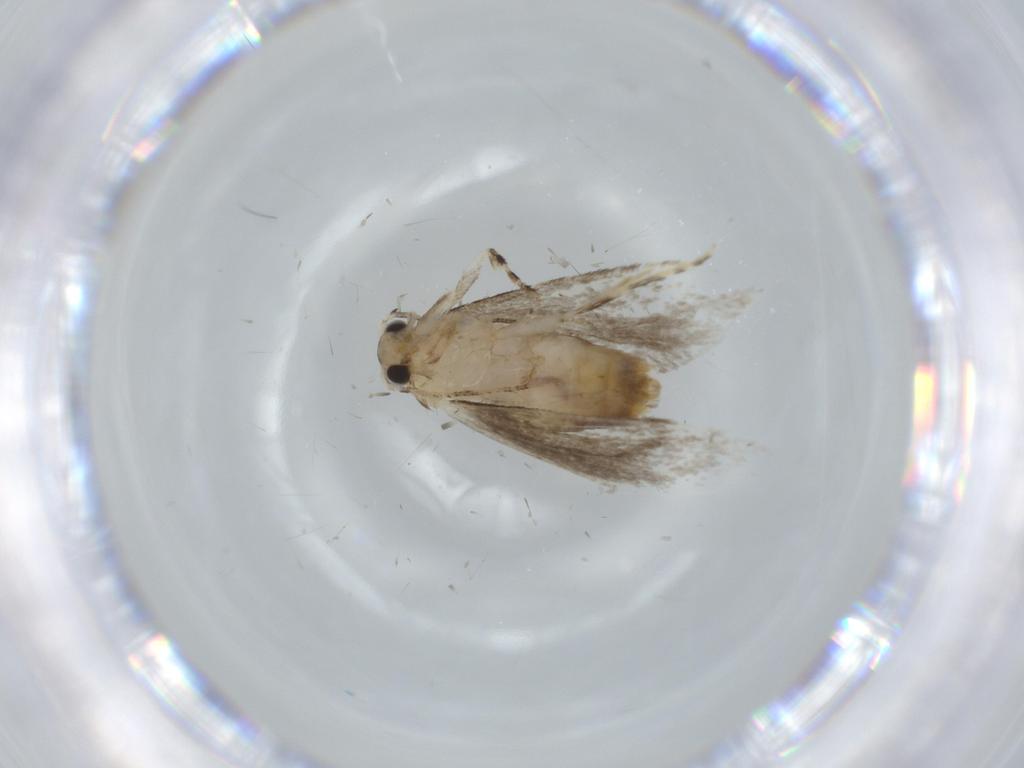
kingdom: Animalia
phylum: Arthropoda
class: Insecta
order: Lepidoptera
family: Tineidae
